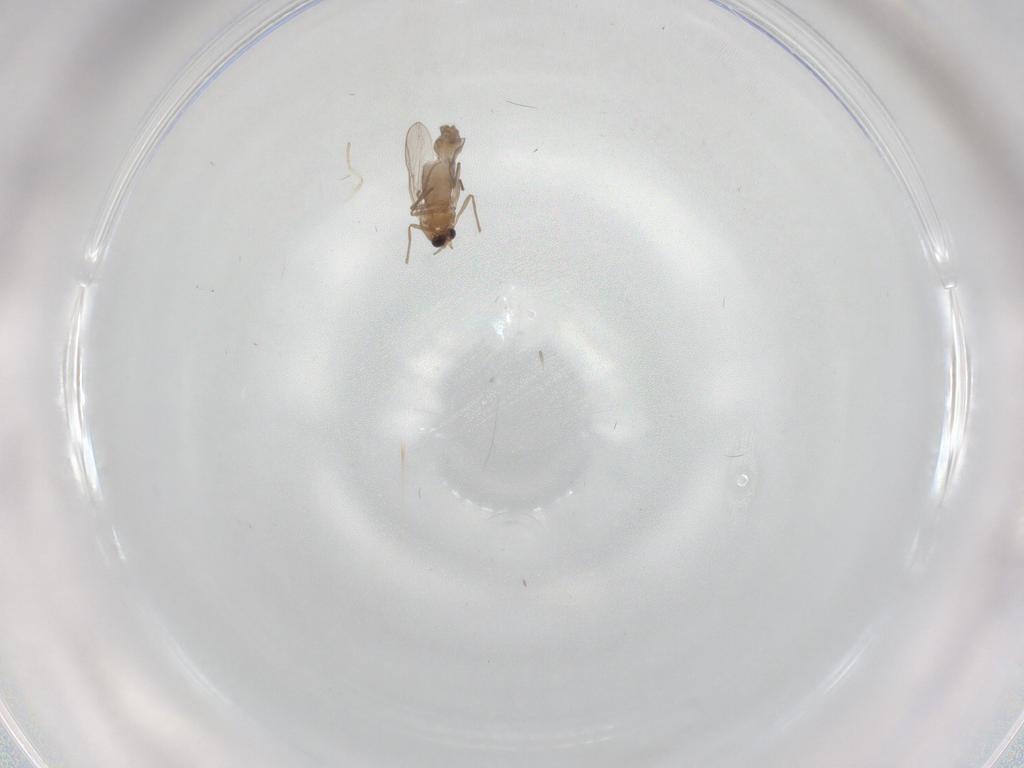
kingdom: Animalia
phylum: Arthropoda
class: Insecta
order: Diptera
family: Chironomidae
